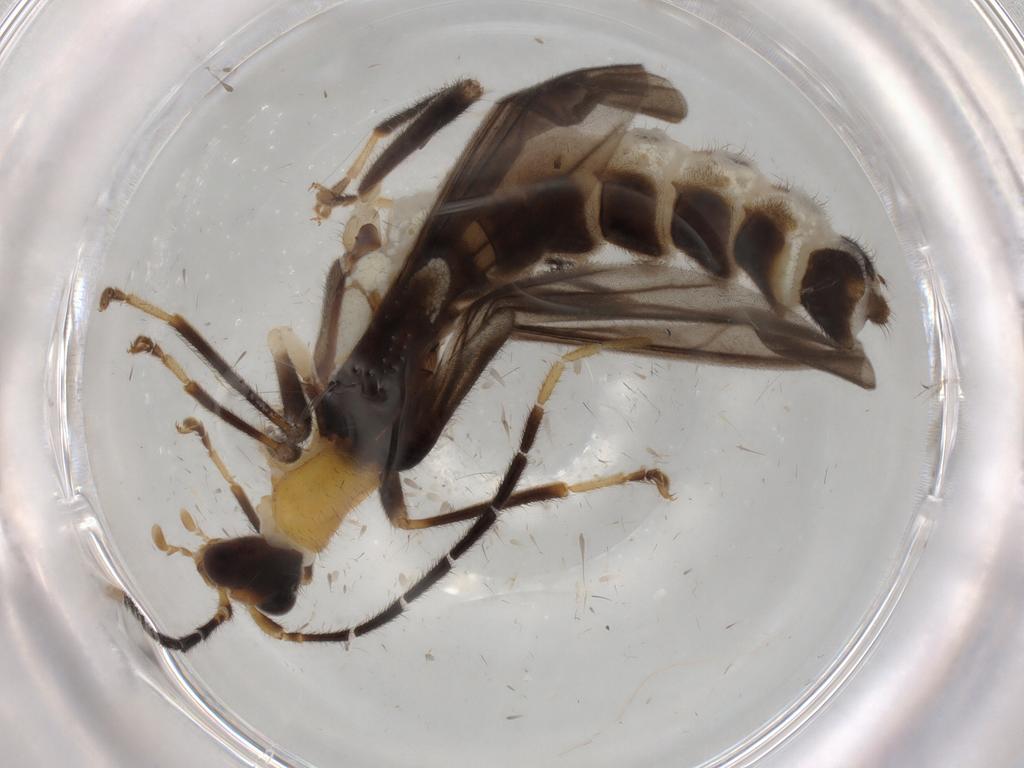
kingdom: Animalia
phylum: Arthropoda
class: Insecta
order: Coleoptera
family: Cantharidae
